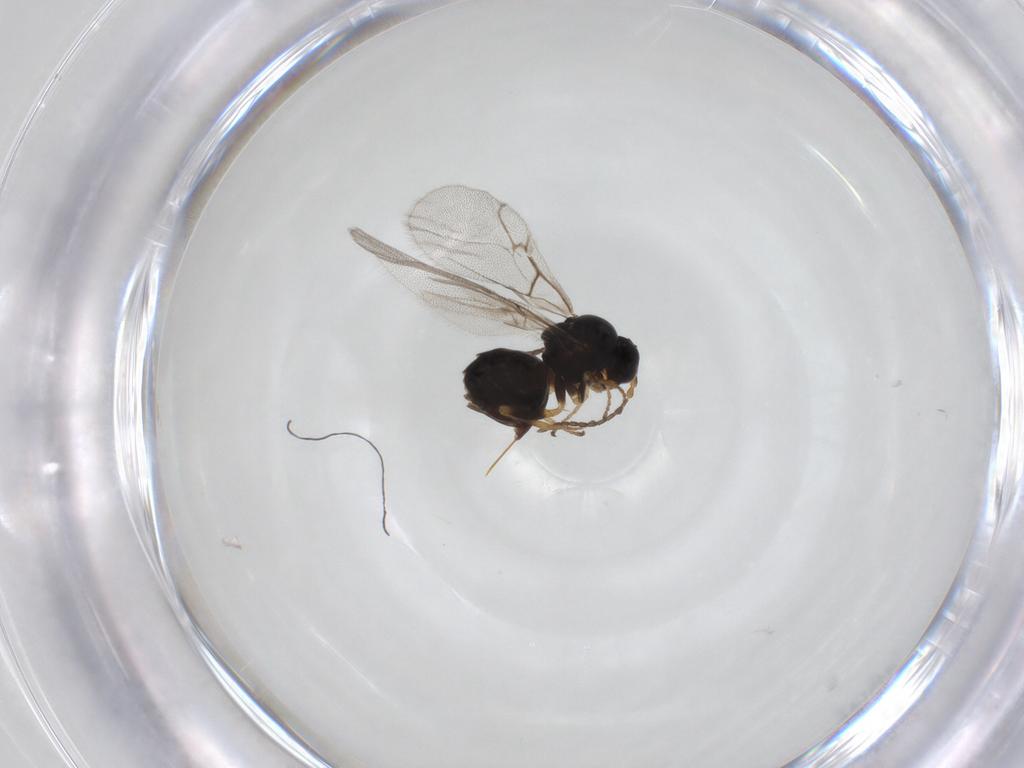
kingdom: Animalia
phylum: Arthropoda
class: Insecta
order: Hymenoptera
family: Cynipidae
